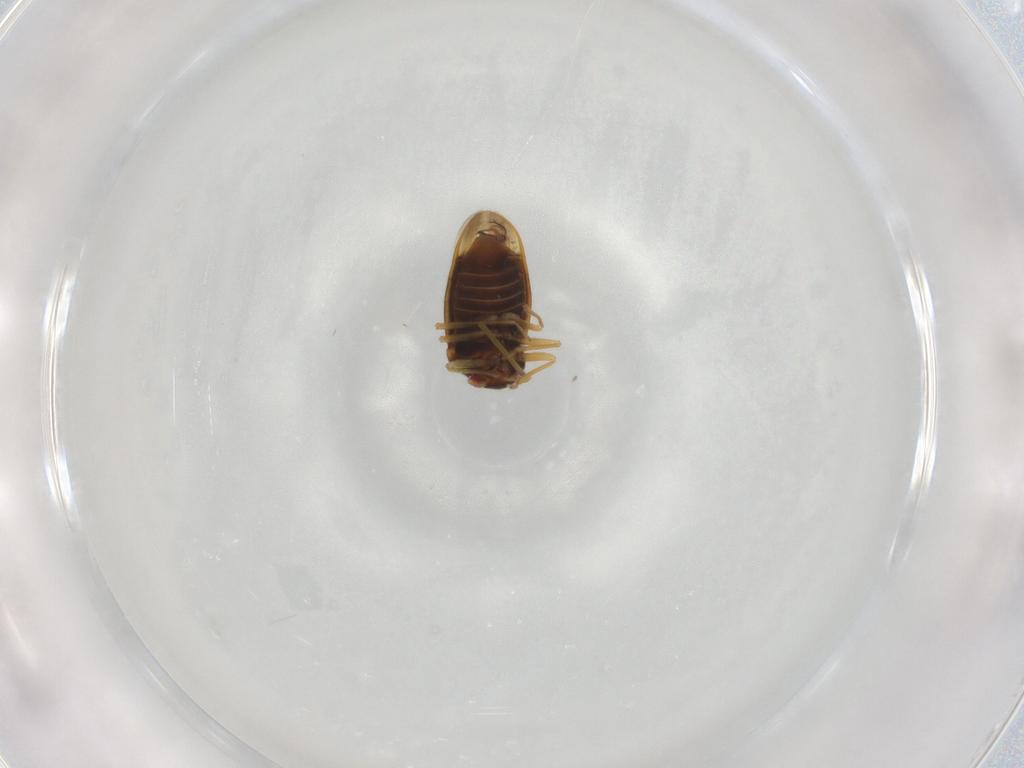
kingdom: Animalia
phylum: Arthropoda
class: Insecta
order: Hemiptera
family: Schizopteridae
